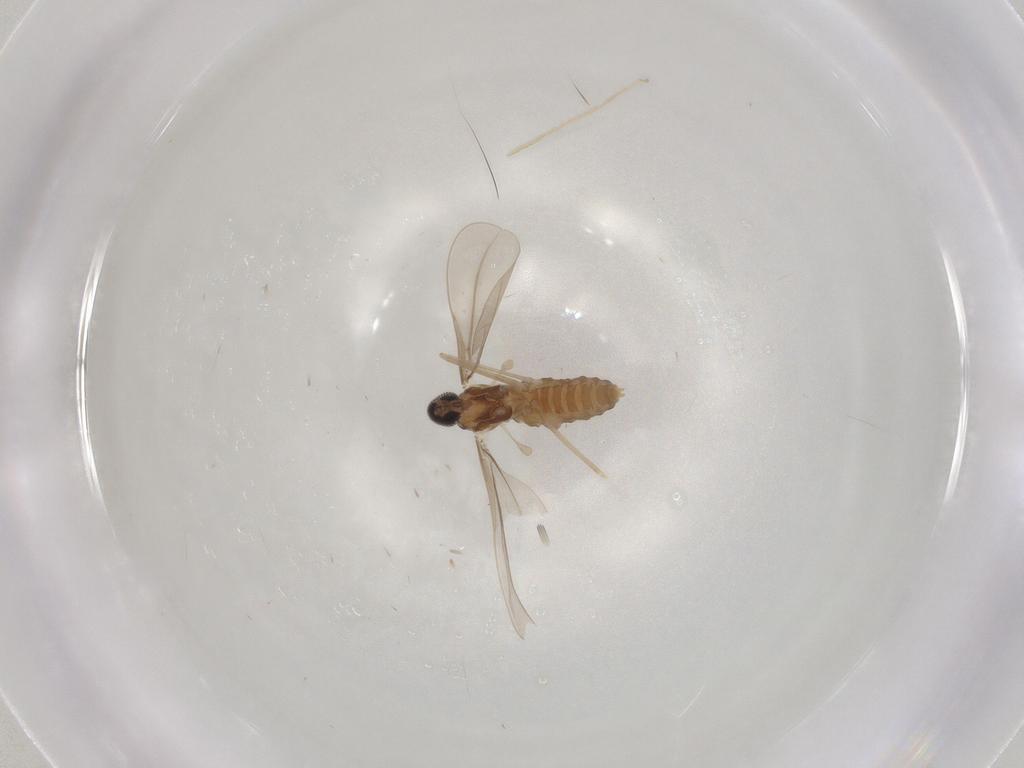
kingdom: Animalia
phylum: Arthropoda
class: Insecta
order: Diptera
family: Cecidomyiidae
